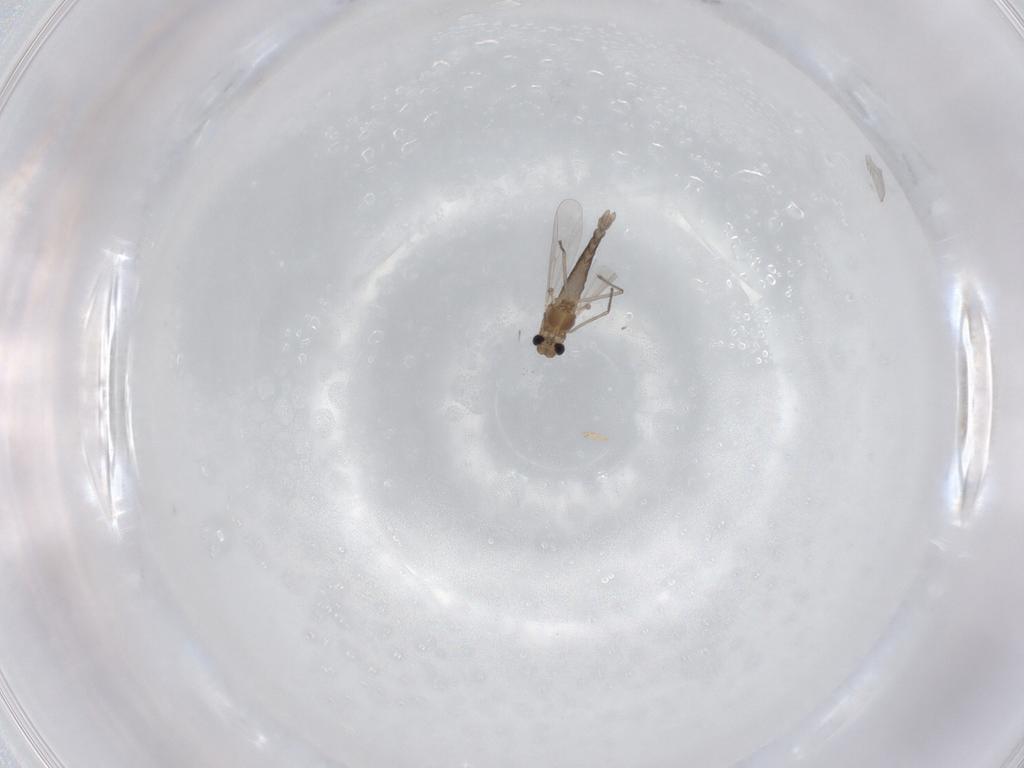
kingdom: Animalia
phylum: Arthropoda
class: Insecta
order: Diptera
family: Chironomidae
